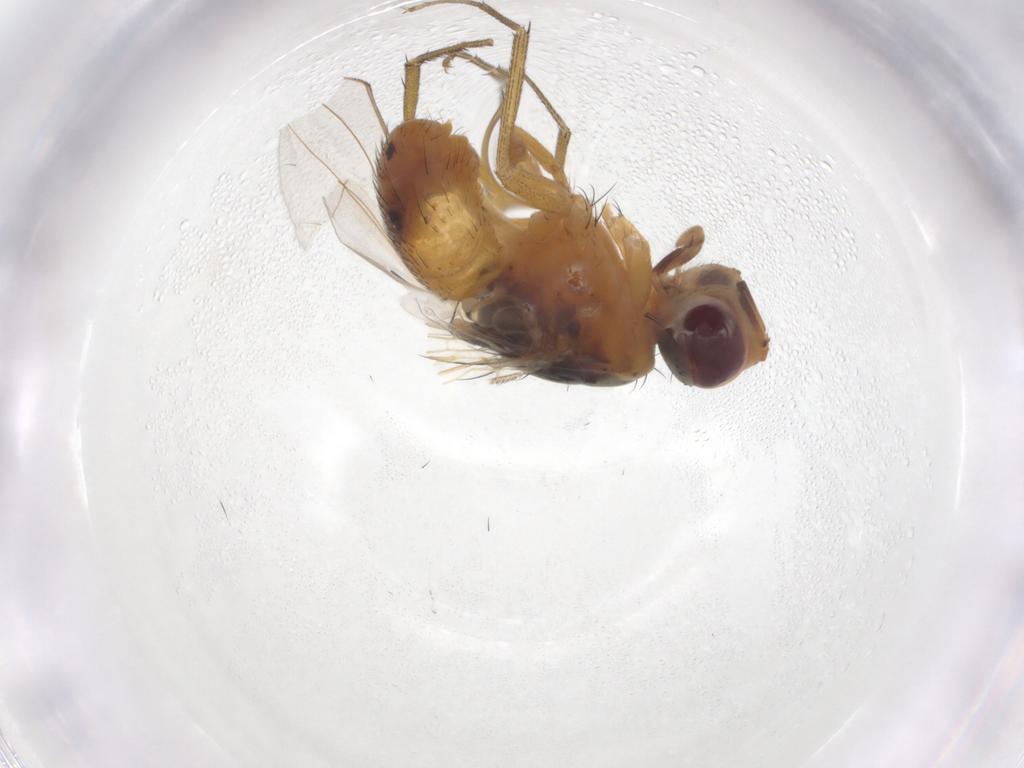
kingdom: Animalia
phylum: Arthropoda
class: Insecta
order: Diptera
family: Muscidae
